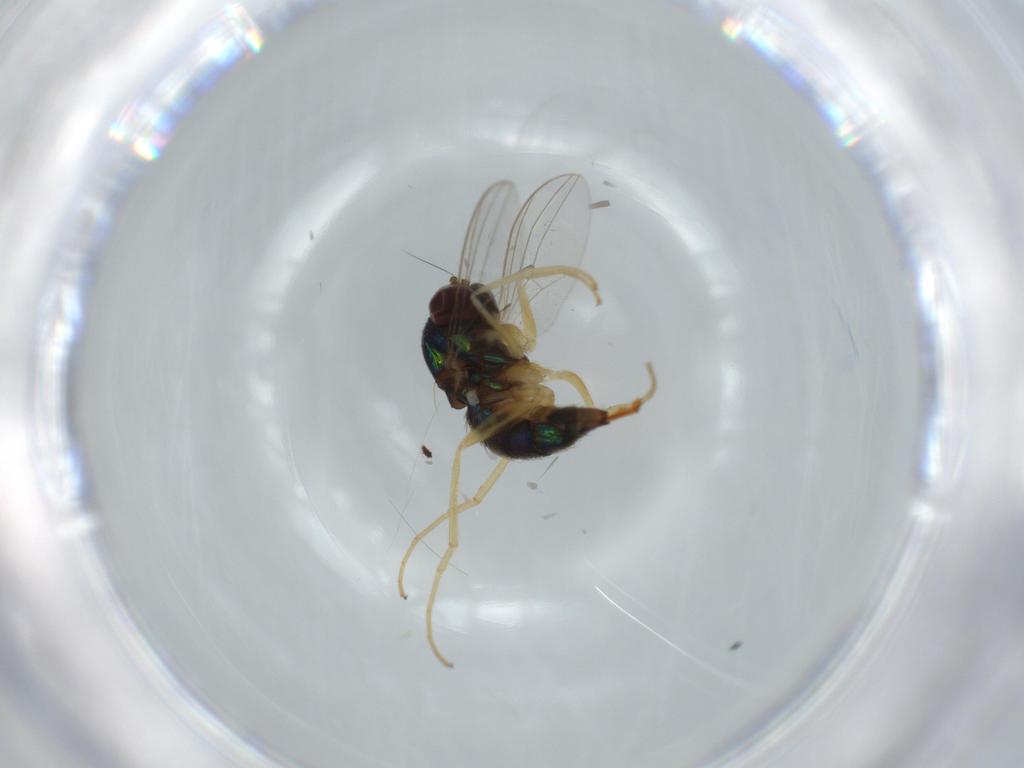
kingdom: Animalia
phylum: Arthropoda
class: Insecta
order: Diptera
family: Dolichopodidae
